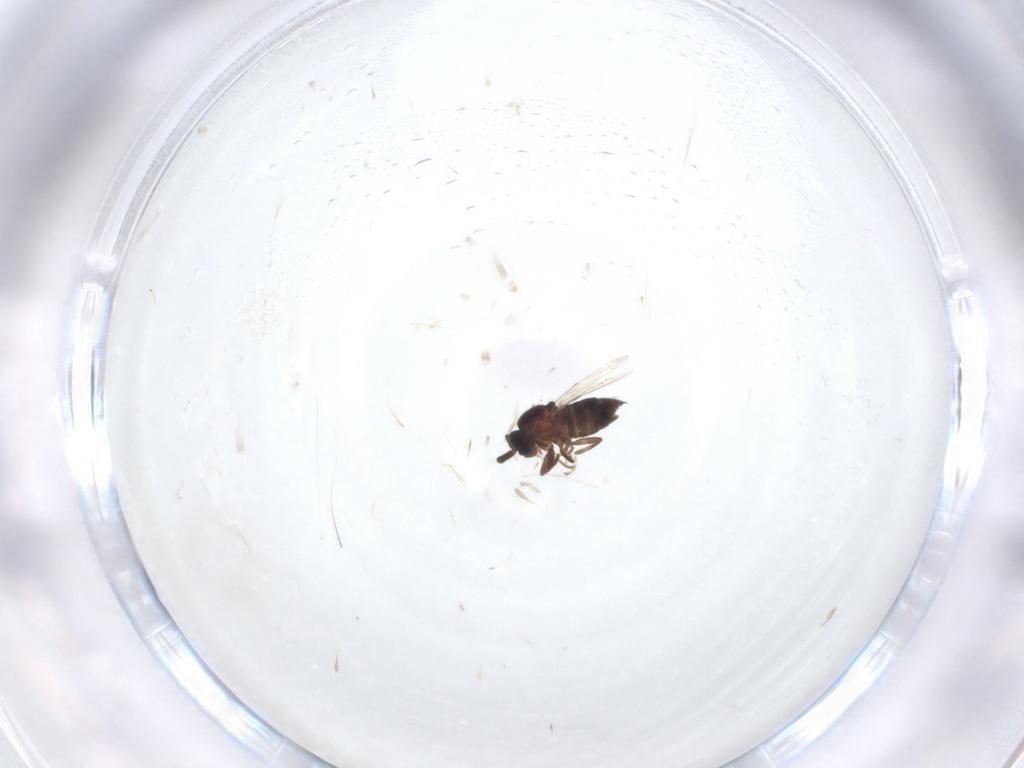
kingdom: Animalia
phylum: Arthropoda
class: Insecta
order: Diptera
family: Scatopsidae
